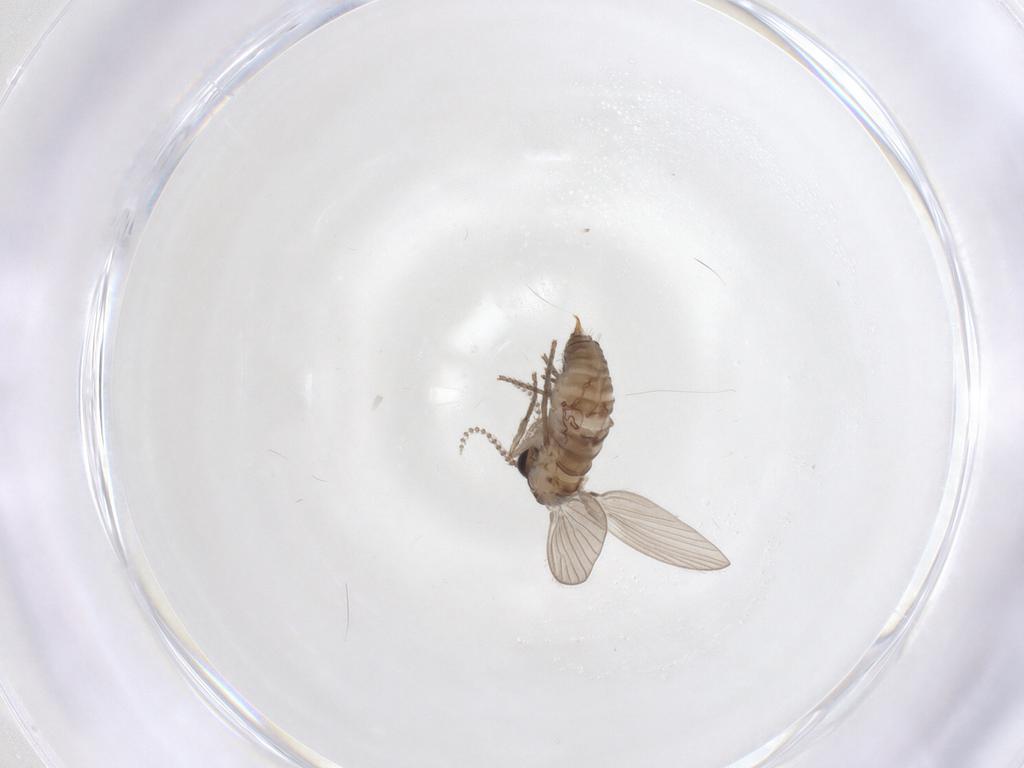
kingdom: Animalia
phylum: Arthropoda
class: Insecta
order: Diptera
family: Psychodidae
